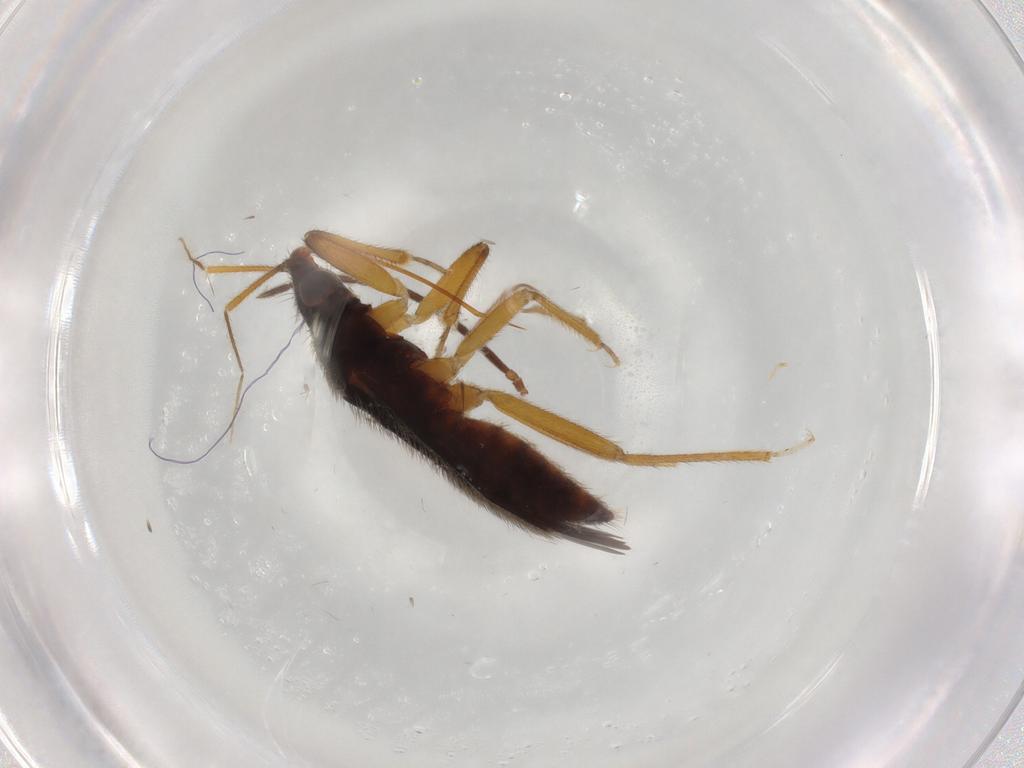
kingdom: Animalia
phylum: Arthropoda
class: Insecta
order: Hemiptera
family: Anthocoridae
